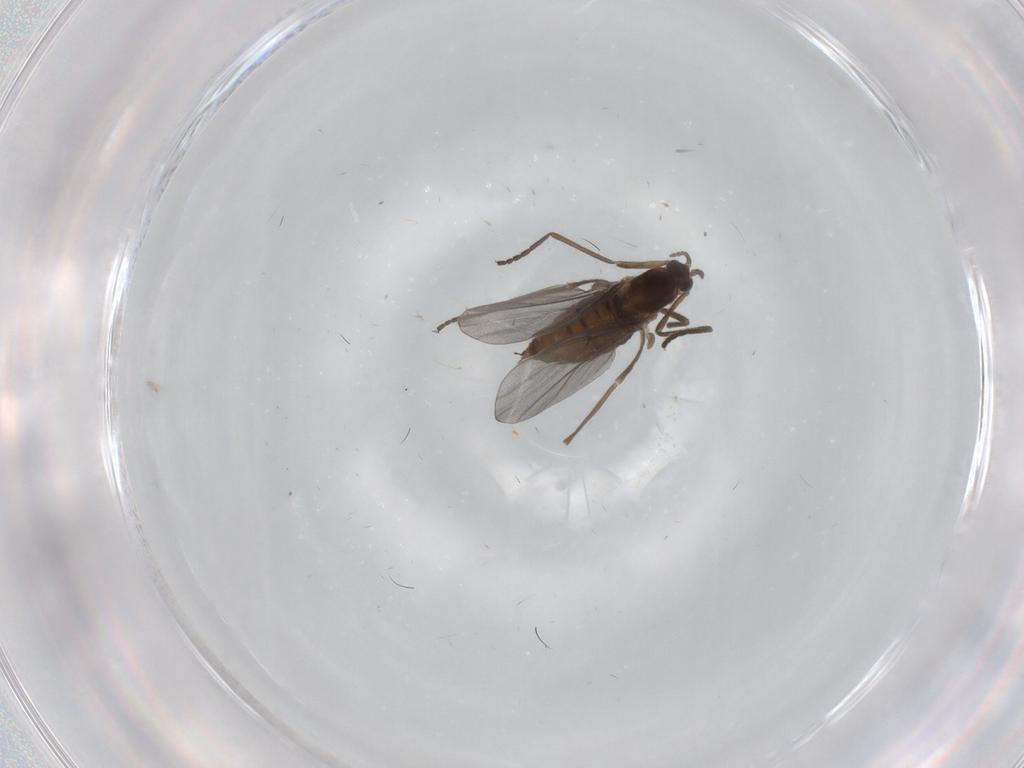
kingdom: Animalia
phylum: Arthropoda
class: Insecta
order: Diptera
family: Cecidomyiidae
